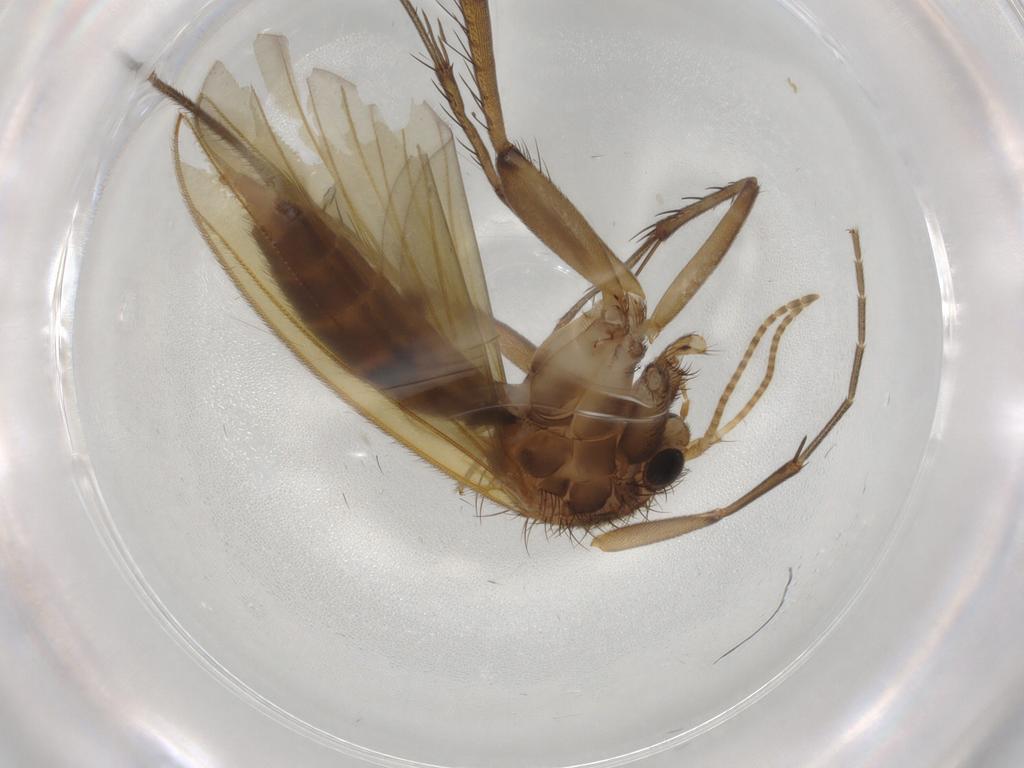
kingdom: Animalia
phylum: Arthropoda
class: Insecta
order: Diptera
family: Mycetophilidae
